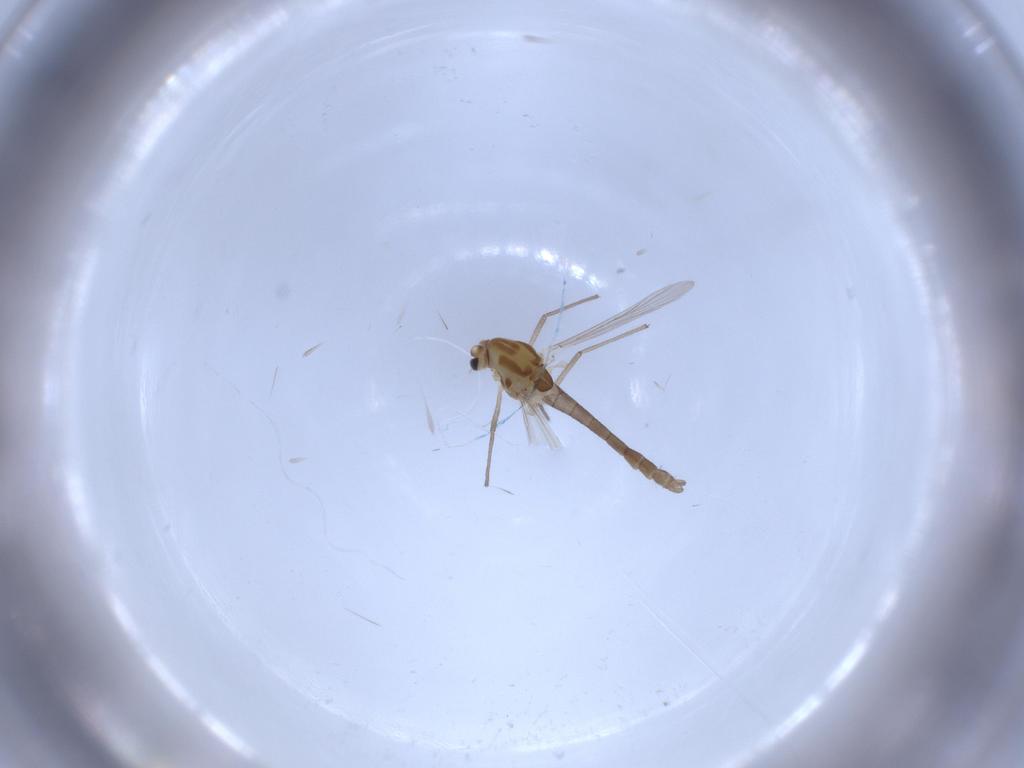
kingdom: Animalia
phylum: Arthropoda
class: Insecta
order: Diptera
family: Chironomidae
